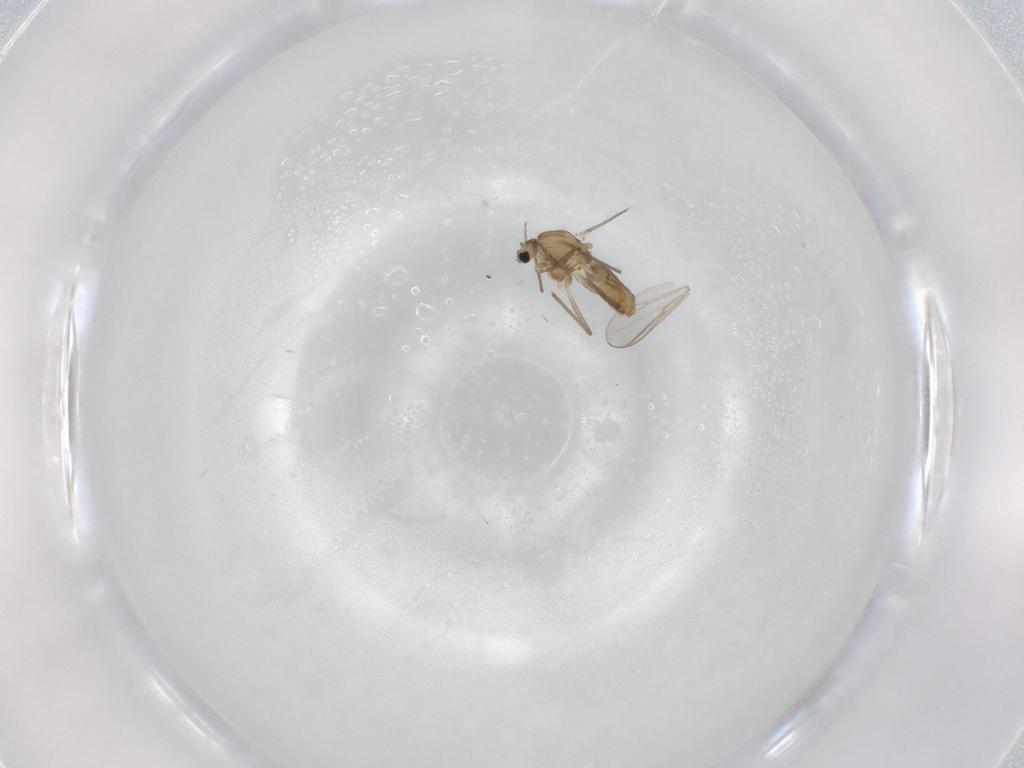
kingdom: Animalia
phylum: Arthropoda
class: Insecta
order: Diptera
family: Chironomidae
